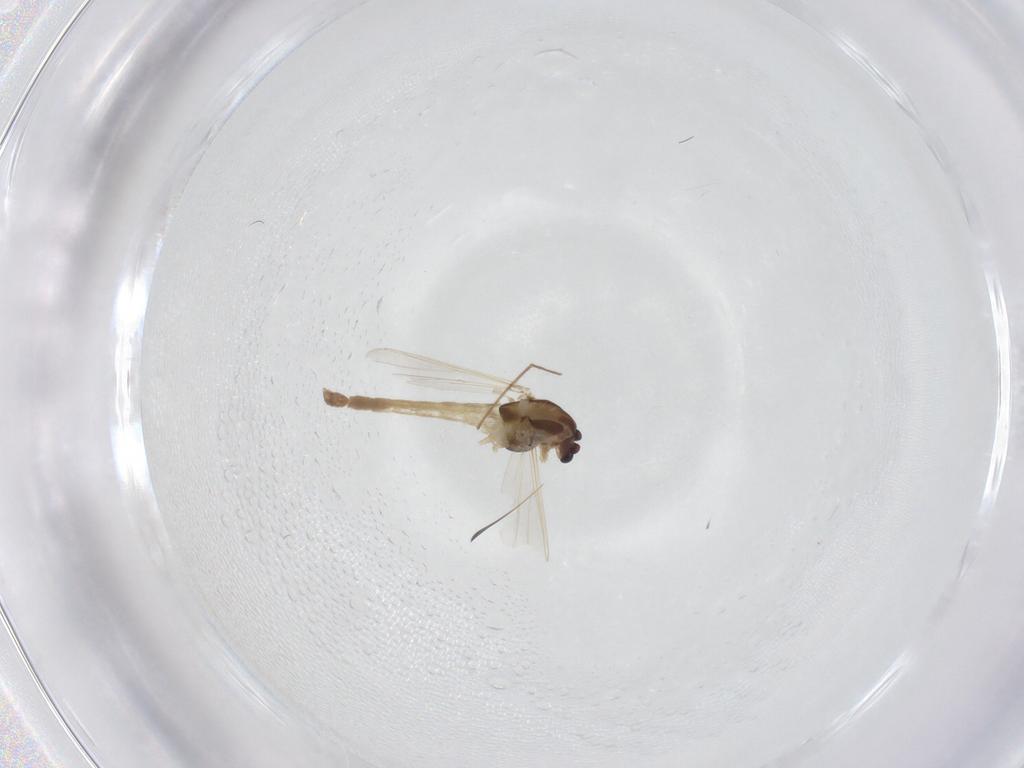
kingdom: Animalia
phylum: Arthropoda
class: Insecta
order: Diptera
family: Chironomidae
